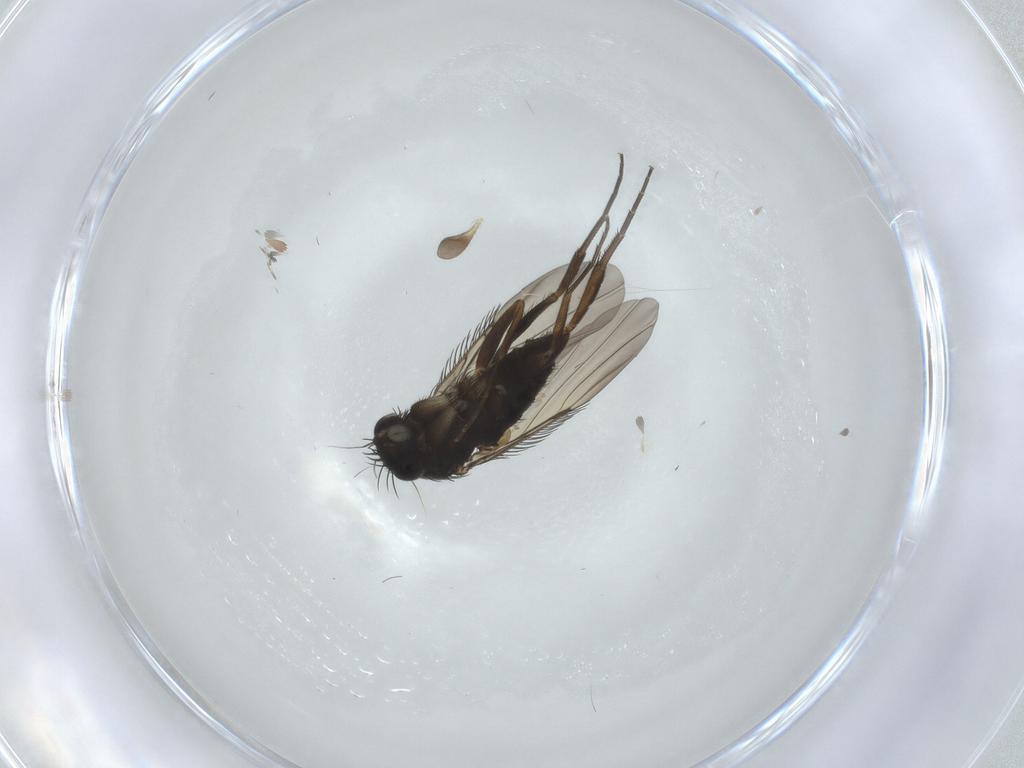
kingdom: Animalia
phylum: Arthropoda
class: Insecta
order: Diptera
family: Phoridae
